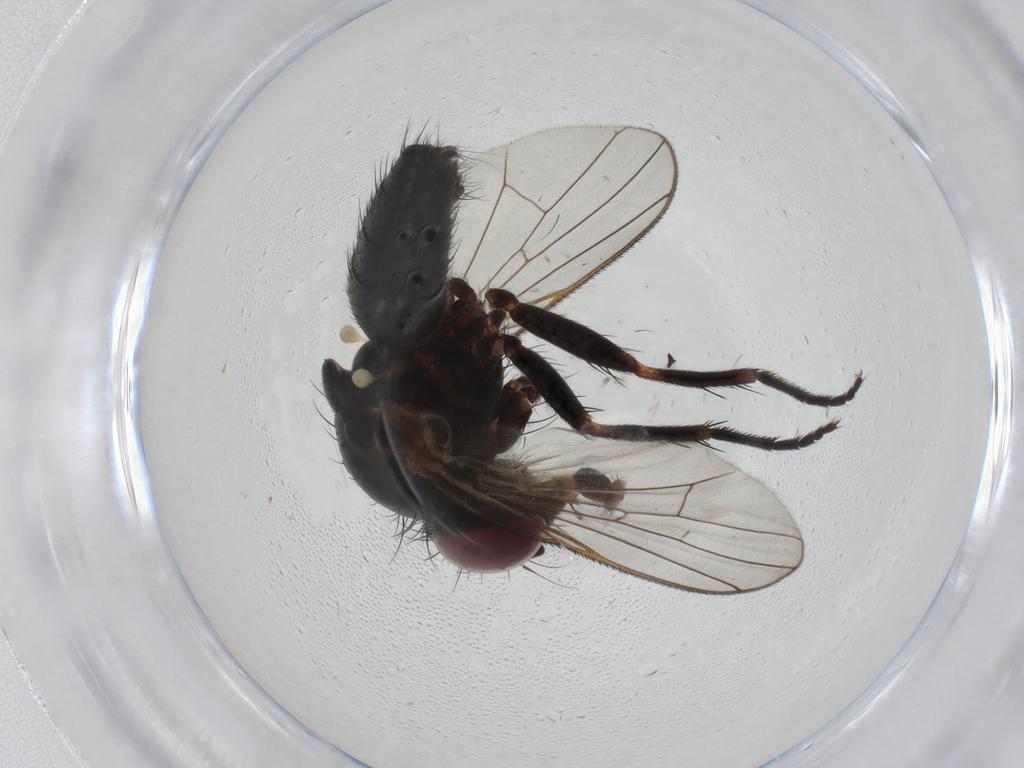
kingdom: Animalia
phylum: Arthropoda
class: Insecta
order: Diptera
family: Fannia
